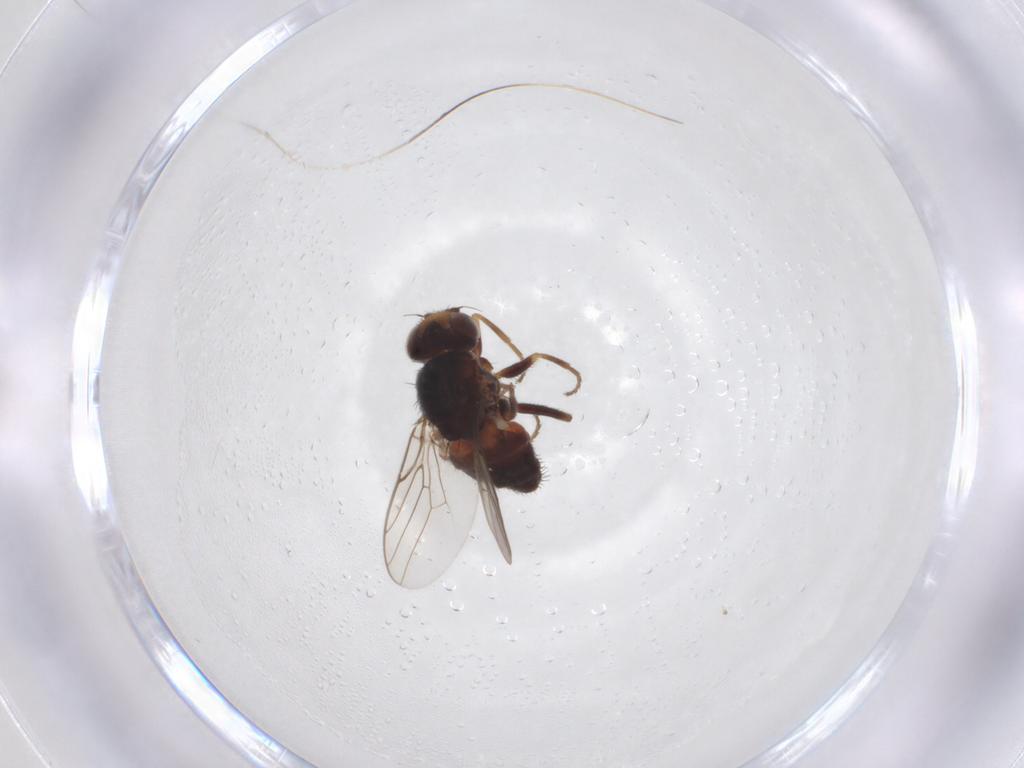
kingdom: Animalia
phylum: Arthropoda
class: Insecta
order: Diptera
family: Chloropidae
